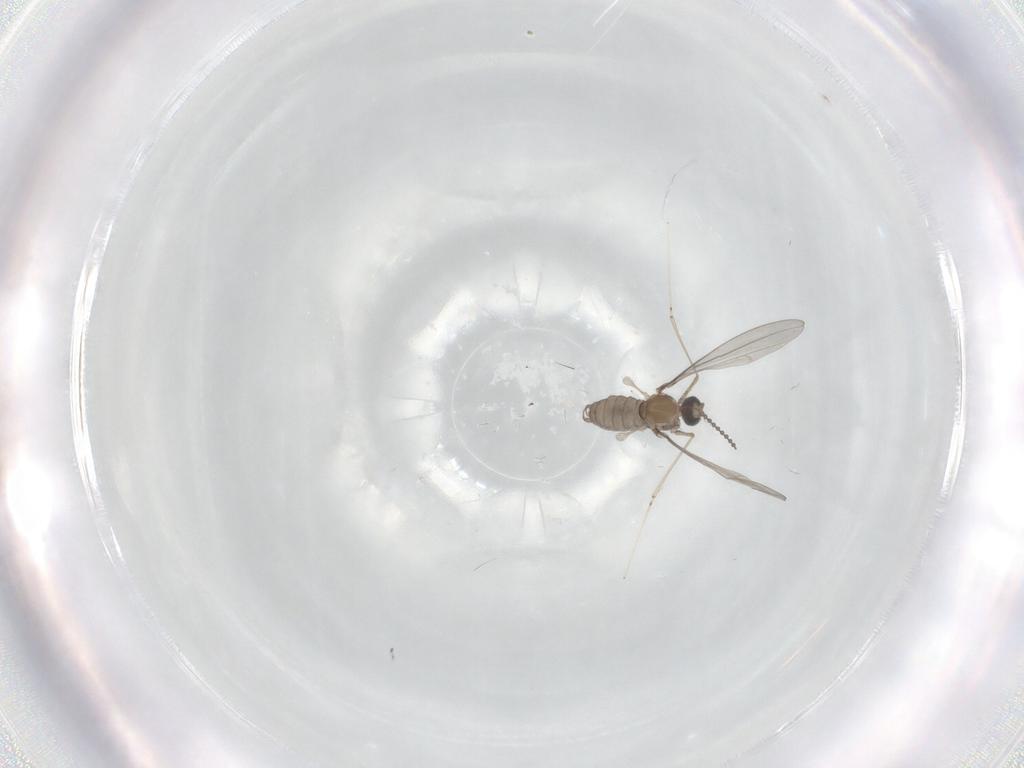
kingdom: Animalia
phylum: Arthropoda
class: Insecta
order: Diptera
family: Cecidomyiidae
